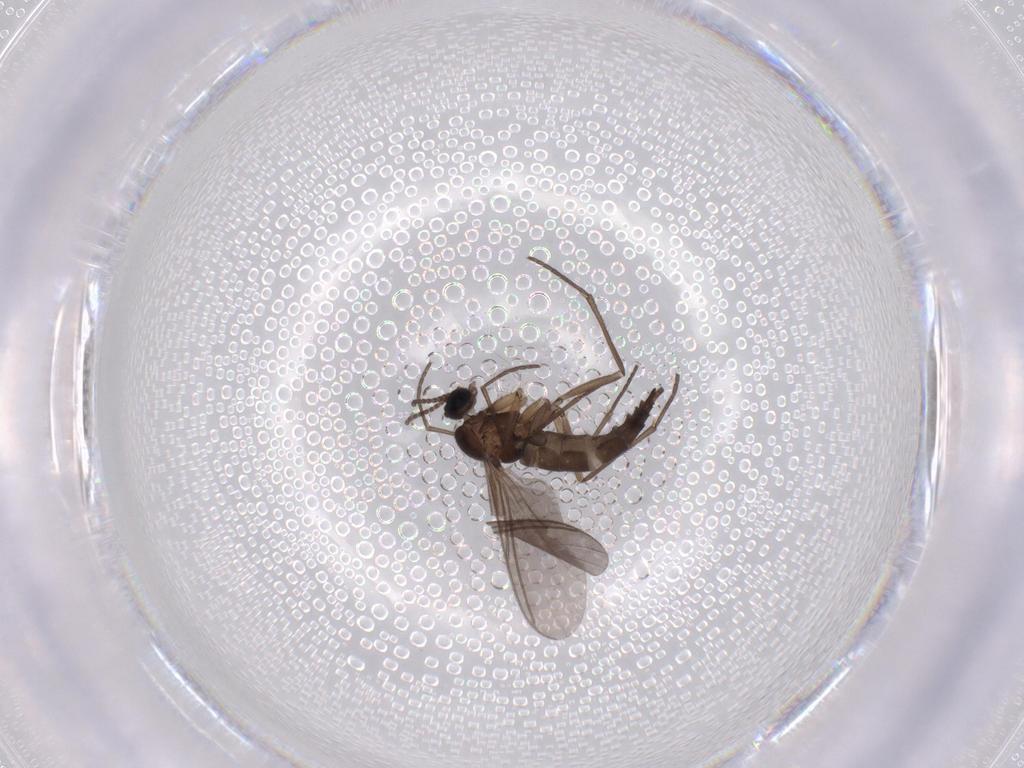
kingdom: Animalia
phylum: Arthropoda
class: Insecta
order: Diptera
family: Sciaridae
